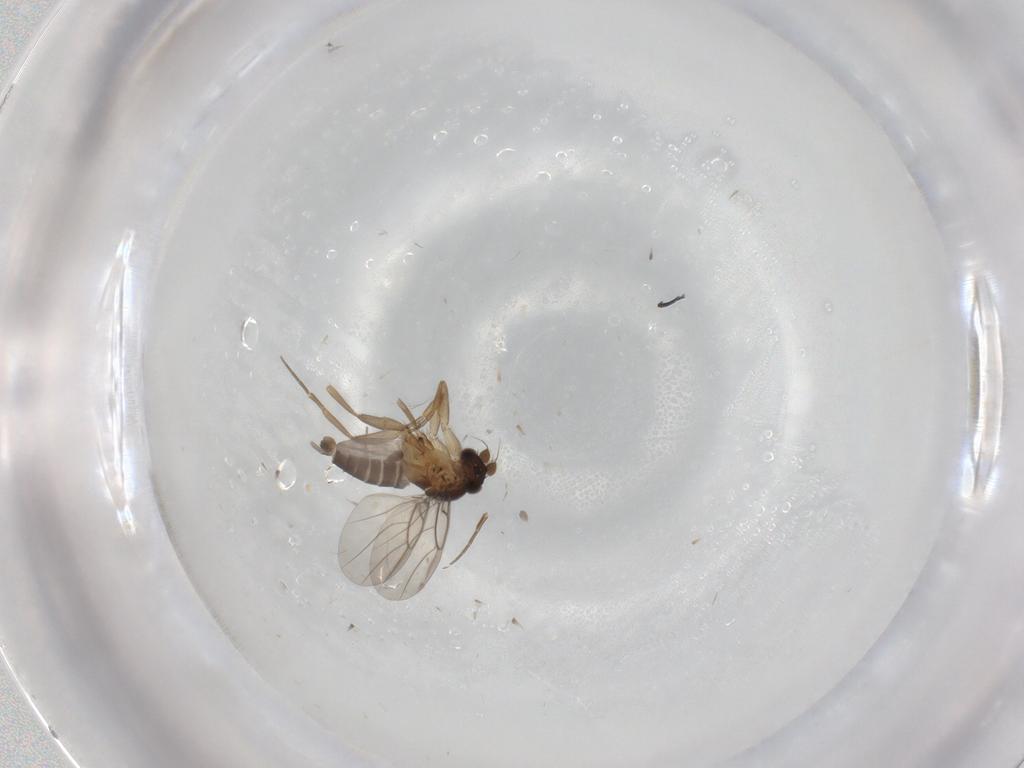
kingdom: Animalia
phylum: Arthropoda
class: Insecta
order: Diptera
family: Phoridae
